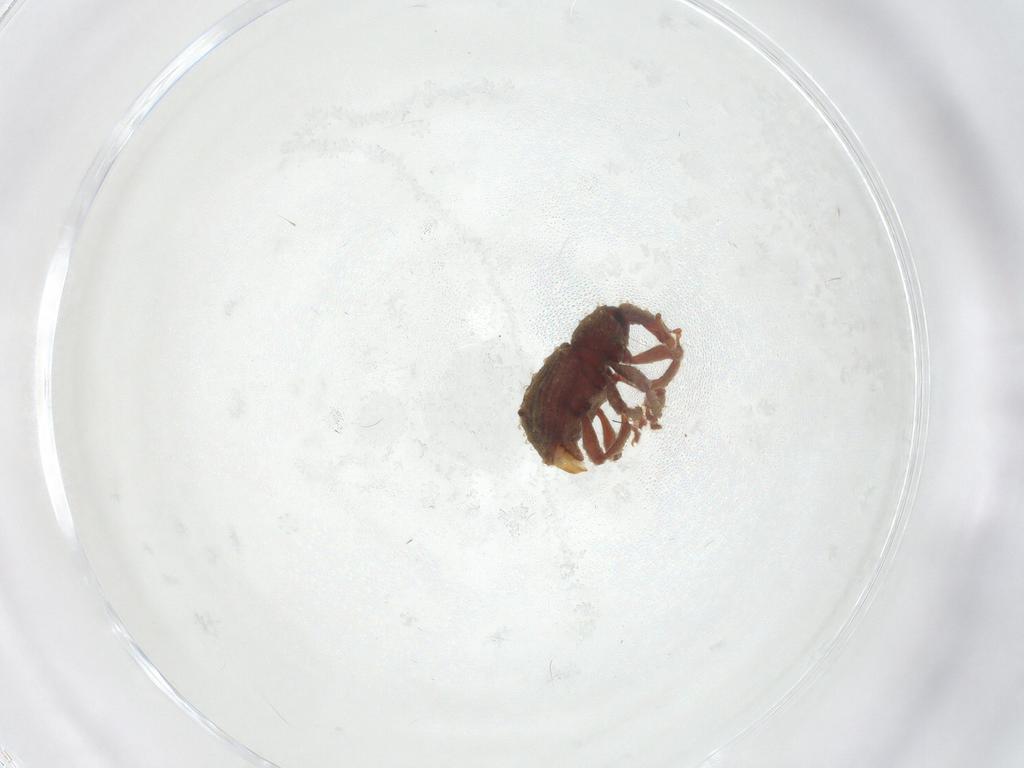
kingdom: Animalia
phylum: Arthropoda
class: Insecta
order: Coleoptera
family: Curculionidae
